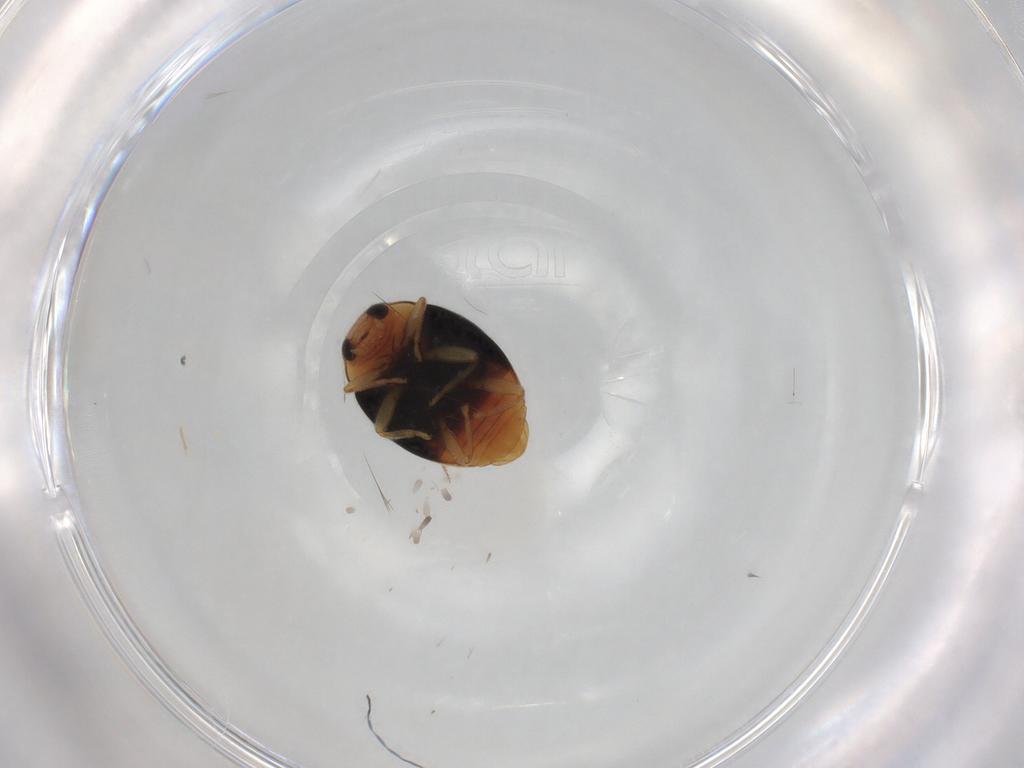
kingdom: Animalia
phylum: Arthropoda
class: Insecta
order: Coleoptera
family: Coccinellidae
